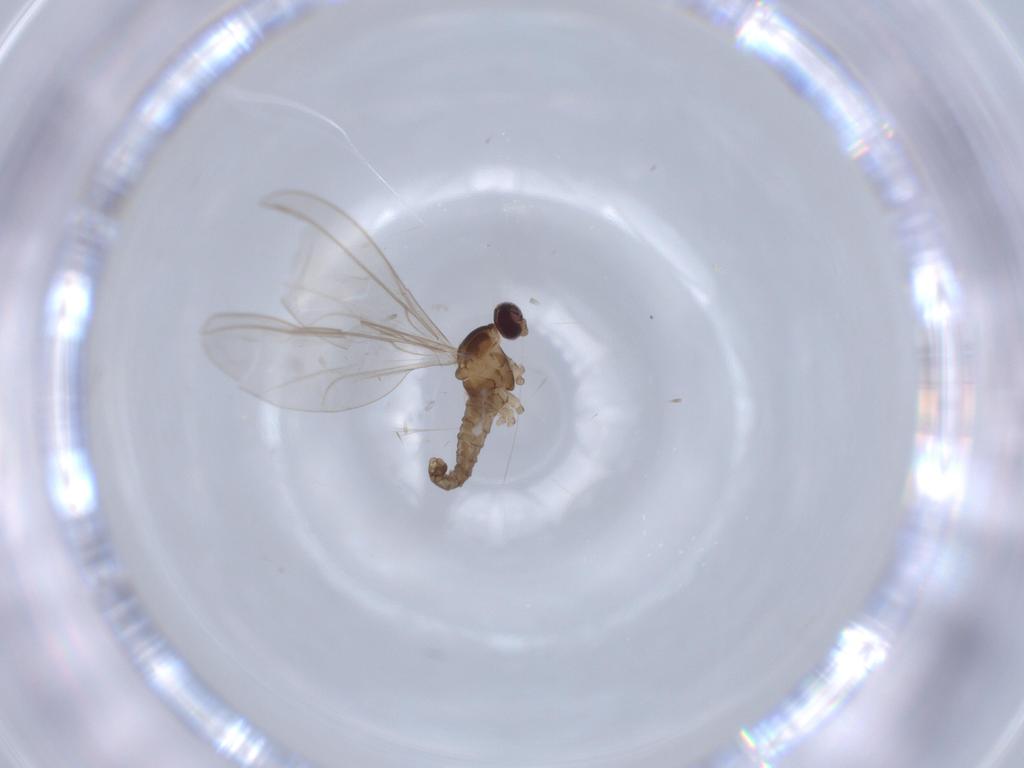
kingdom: Animalia
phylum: Arthropoda
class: Insecta
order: Diptera
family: Cecidomyiidae
